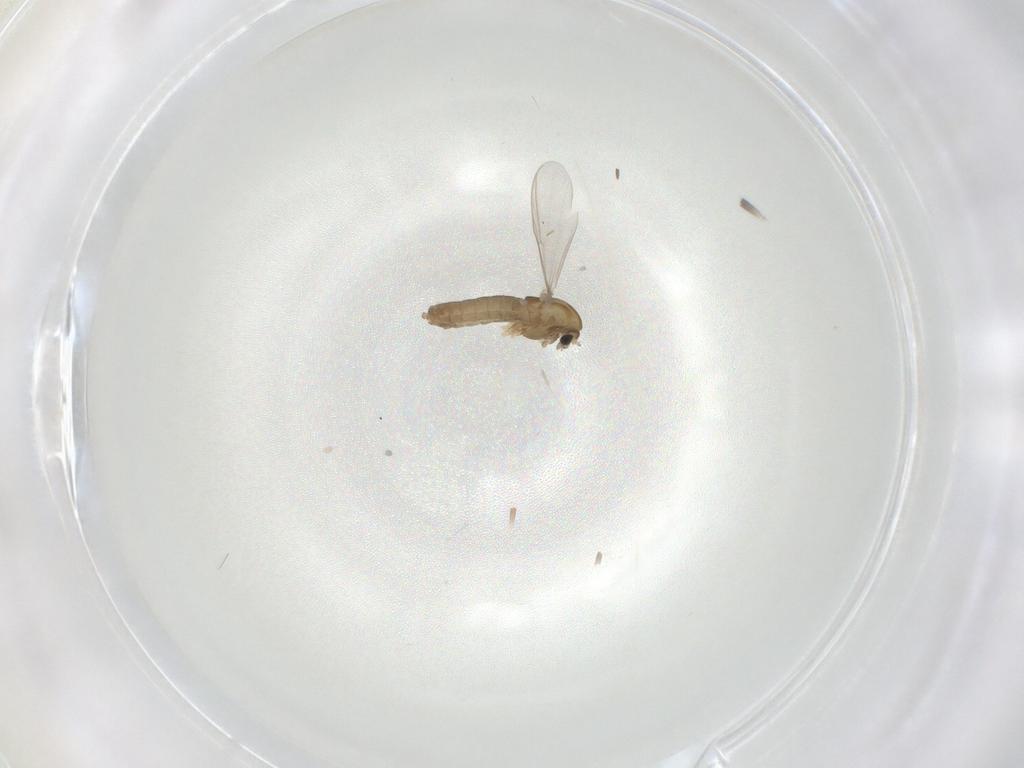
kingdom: Animalia
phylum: Arthropoda
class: Insecta
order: Diptera
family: Chironomidae
